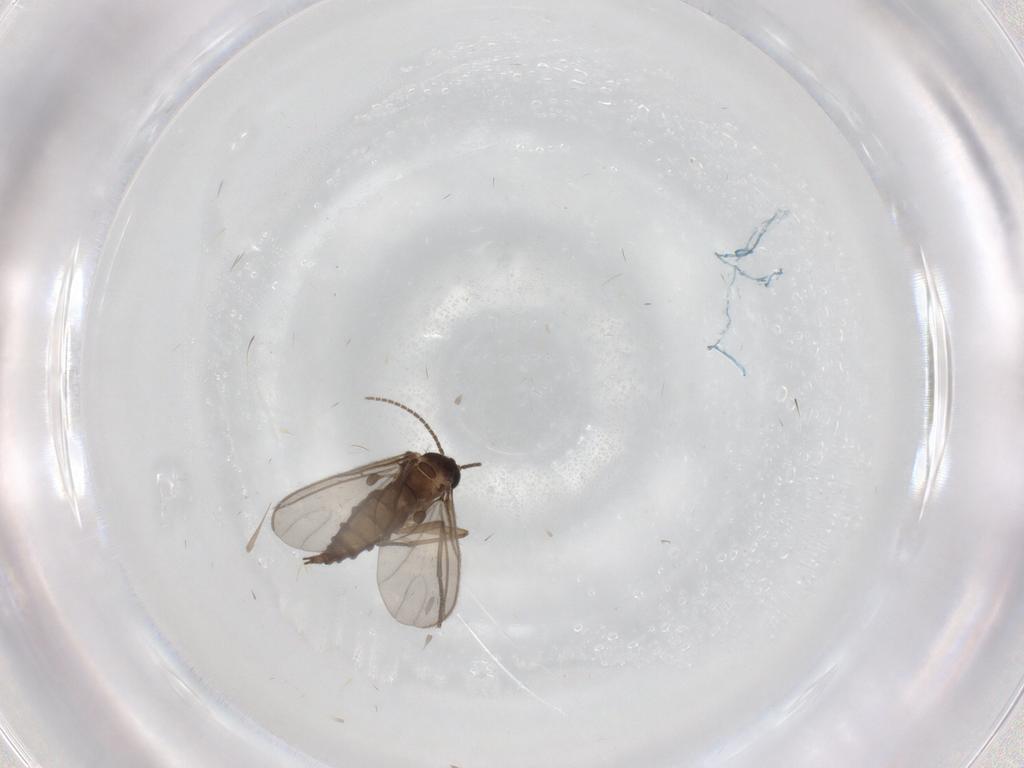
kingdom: Animalia
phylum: Arthropoda
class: Insecta
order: Diptera
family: Sciaridae
